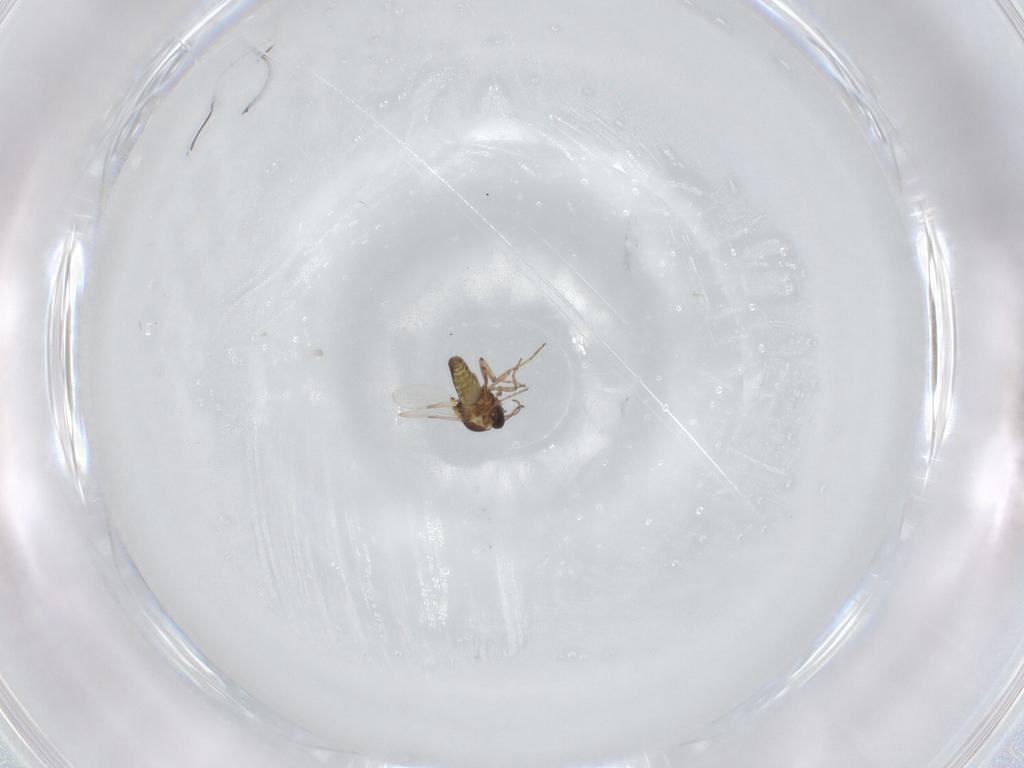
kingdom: Animalia
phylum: Arthropoda
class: Insecta
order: Diptera
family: Ceratopogonidae
